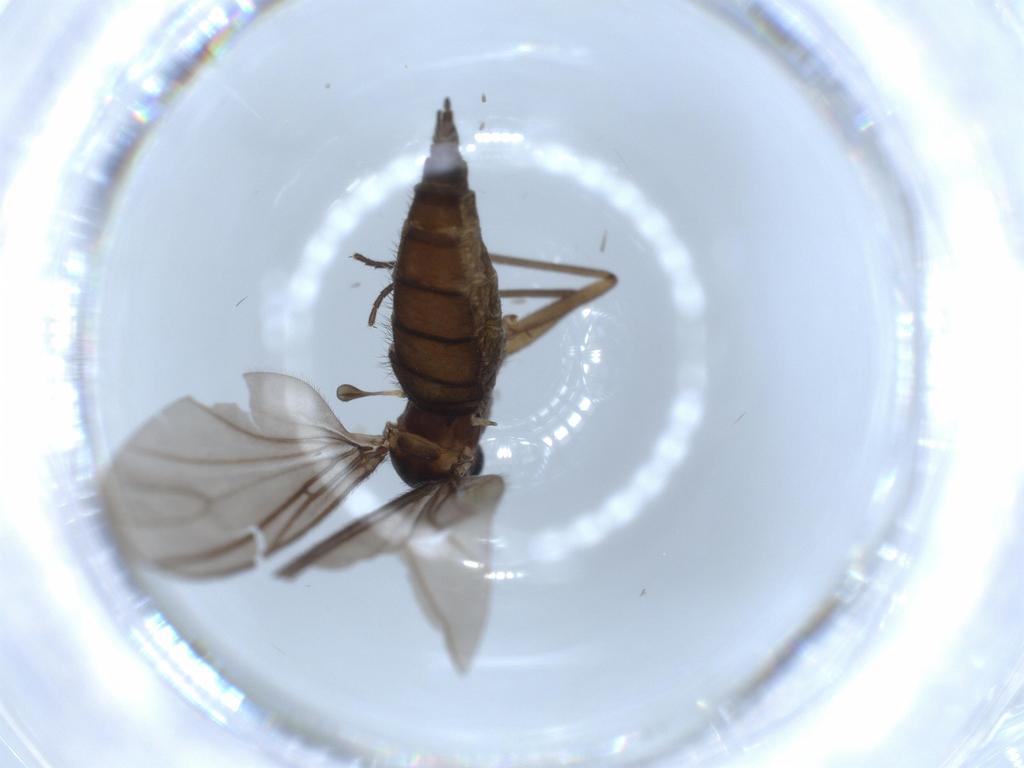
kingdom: Animalia
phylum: Arthropoda
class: Insecta
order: Diptera
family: Sciaridae
